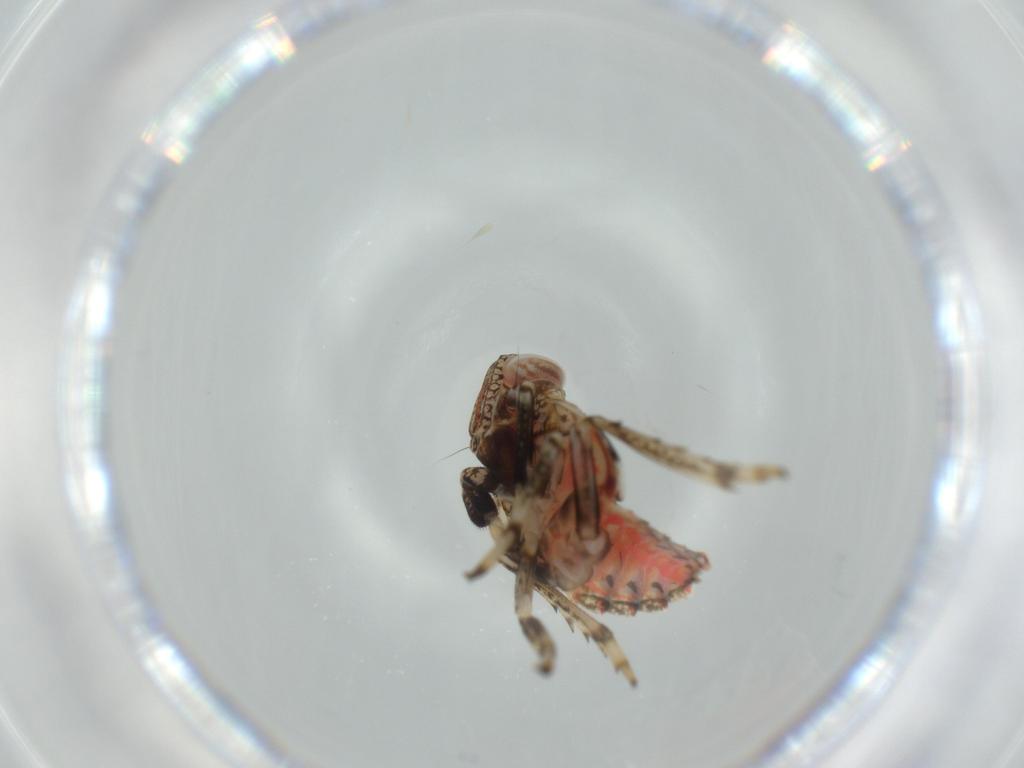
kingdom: Animalia
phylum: Arthropoda
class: Insecta
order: Hemiptera
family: Issidae
